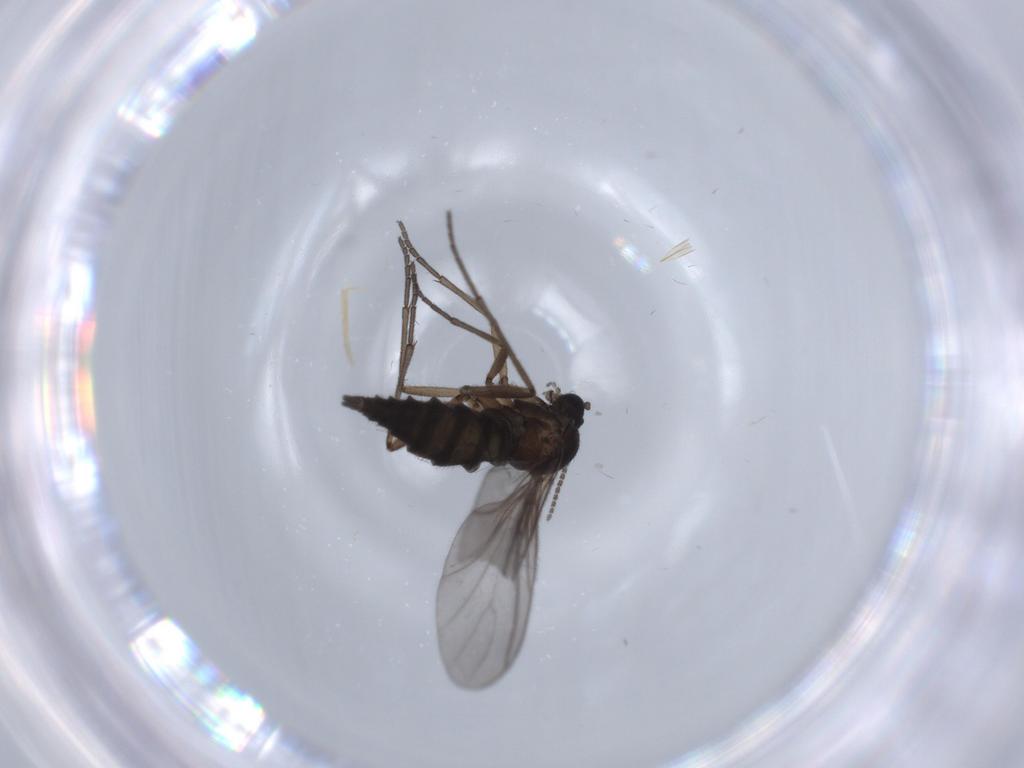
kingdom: Animalia
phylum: Arthropoda
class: Insecta
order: Diptera
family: Sciaridae
